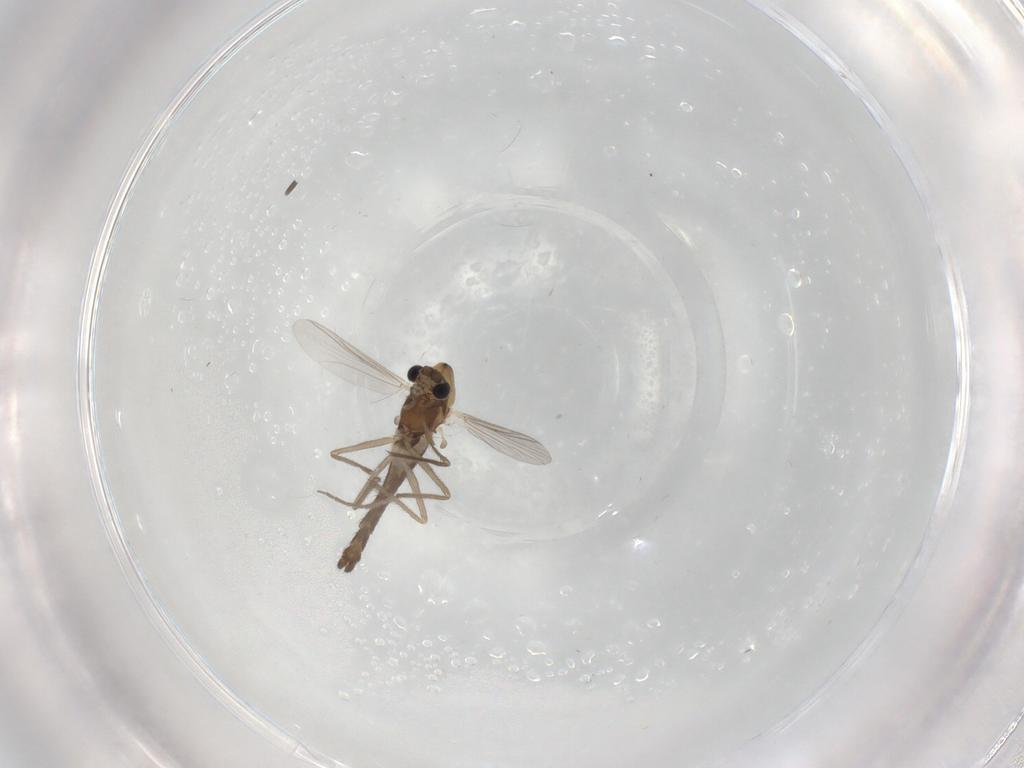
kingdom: Animalia
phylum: Arthropoda
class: Insecta
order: Diptera
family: Chironomidae
